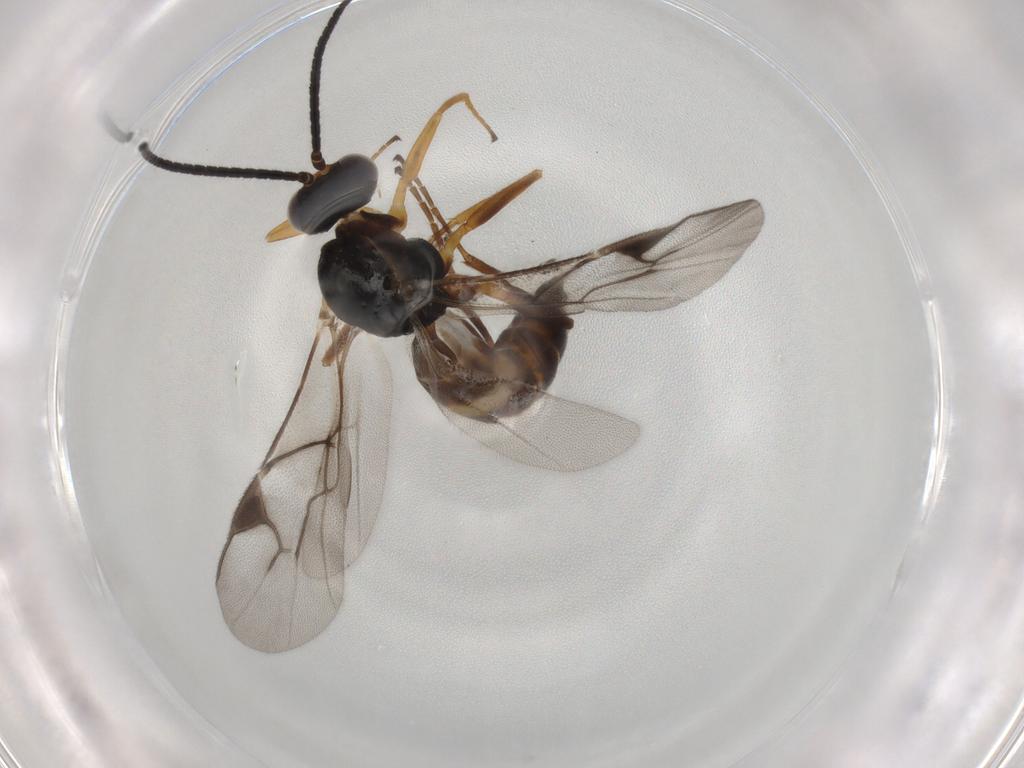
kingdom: Animalia
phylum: Arthropoda
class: Insecta
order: Hymenoptera
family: Braconidae
